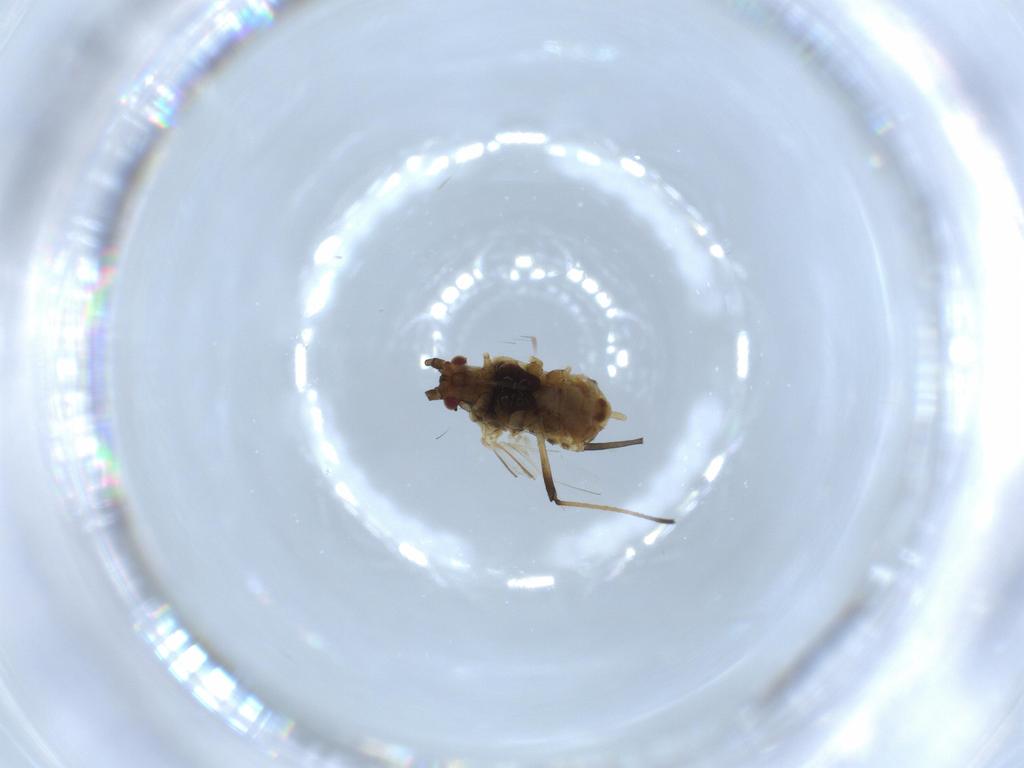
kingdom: Animalia
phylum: Arthropoda
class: Insecta
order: Hemiptera
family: Aphididae
